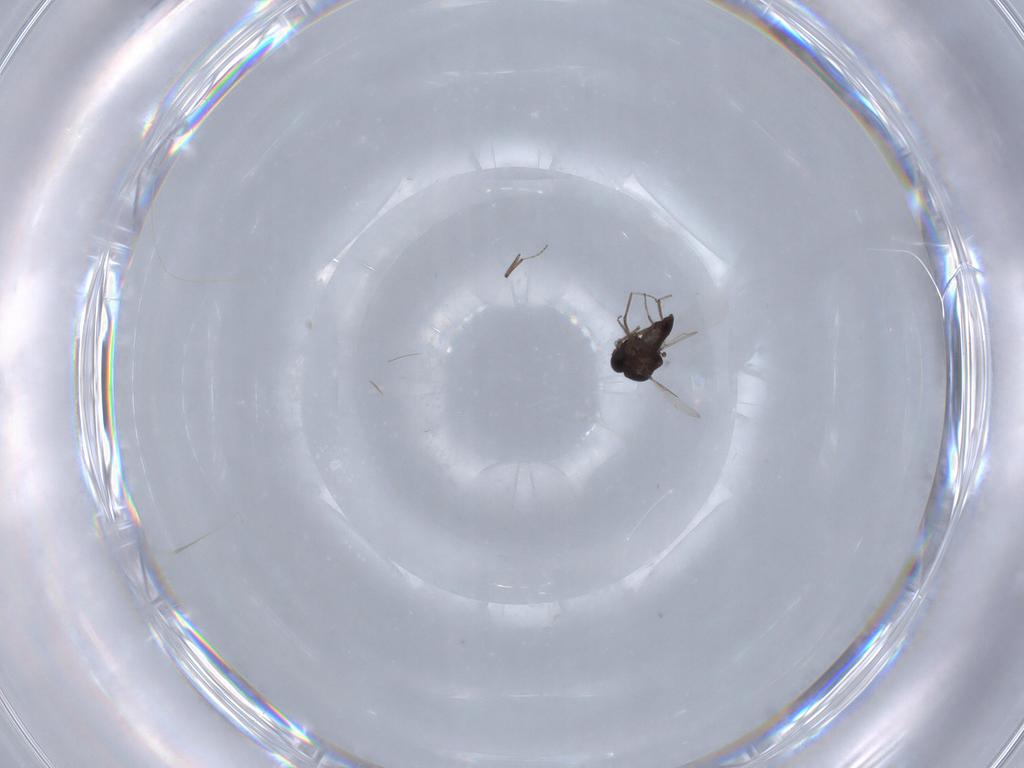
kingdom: Animalia
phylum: Arthropoda
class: Insecta
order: Diptera
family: Ceratopogonidae
